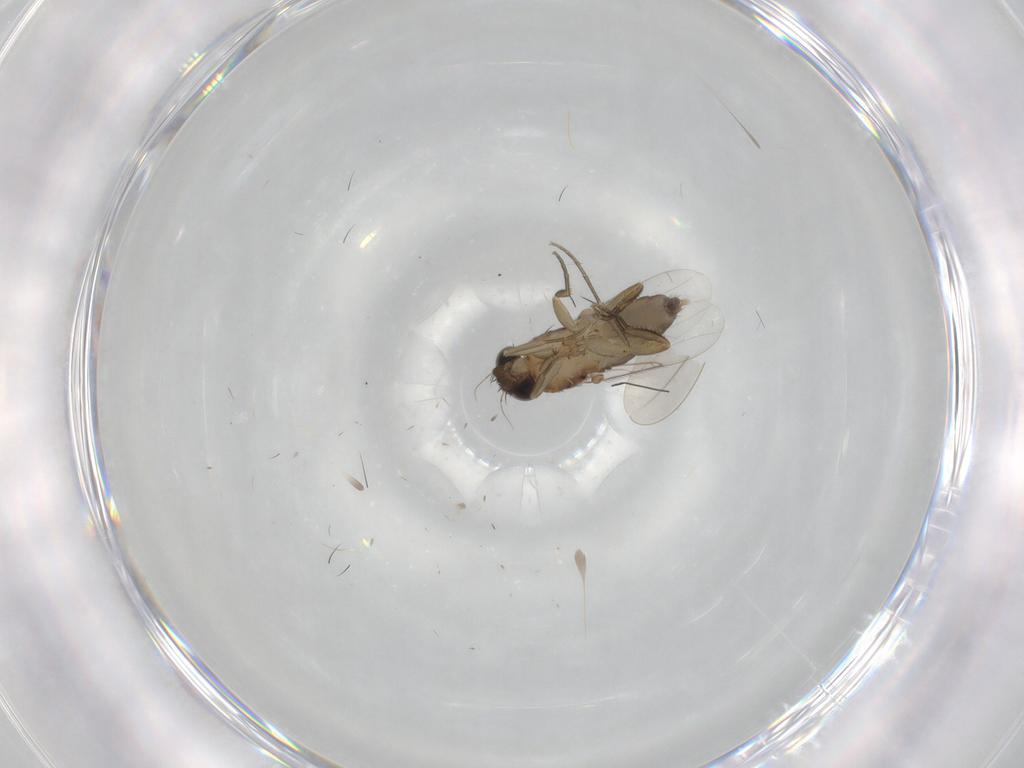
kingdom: Animalia
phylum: Arthropoda
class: Insecta
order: Diptera
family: Phoridae
